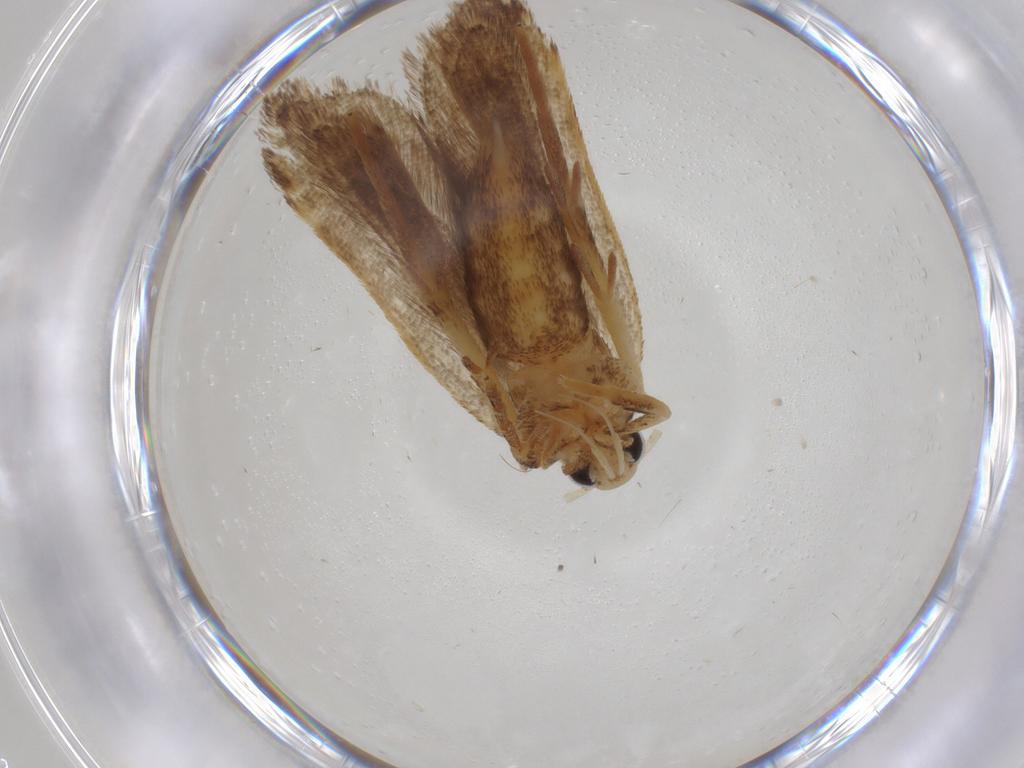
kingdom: Animalia
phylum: Arthropoda
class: Insecta
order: Lepidoptera
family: Gelechiidae
